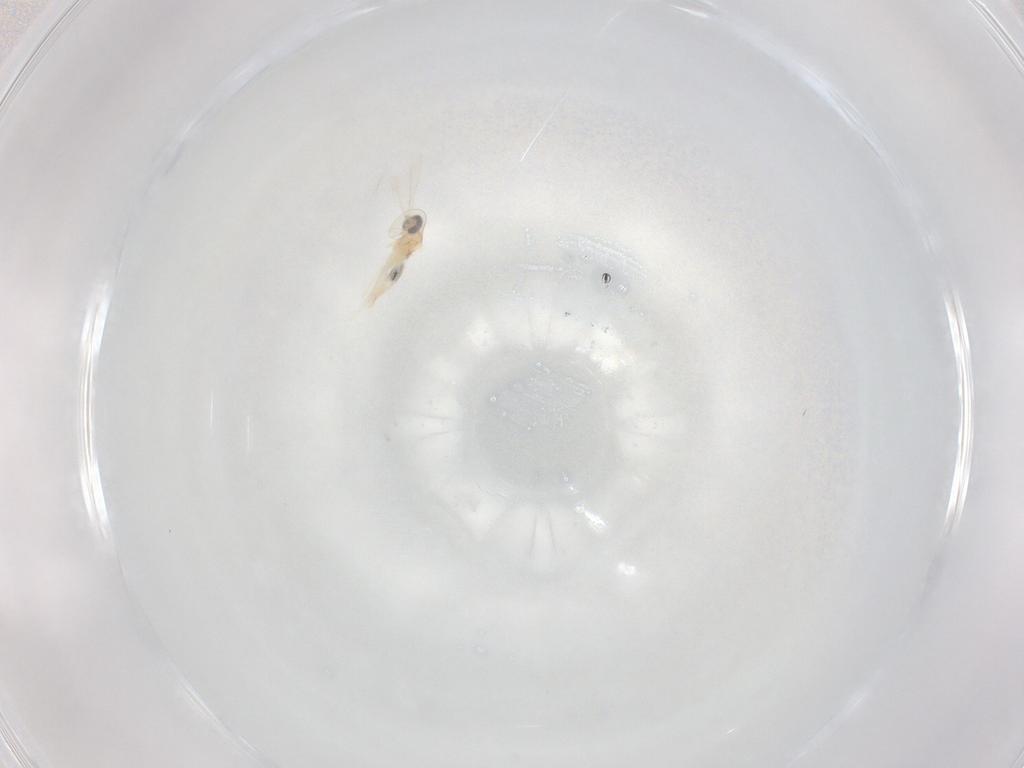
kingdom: Animalia
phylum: Arthropoda
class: Insecta
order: Diptera
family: Cecidomyiidae
